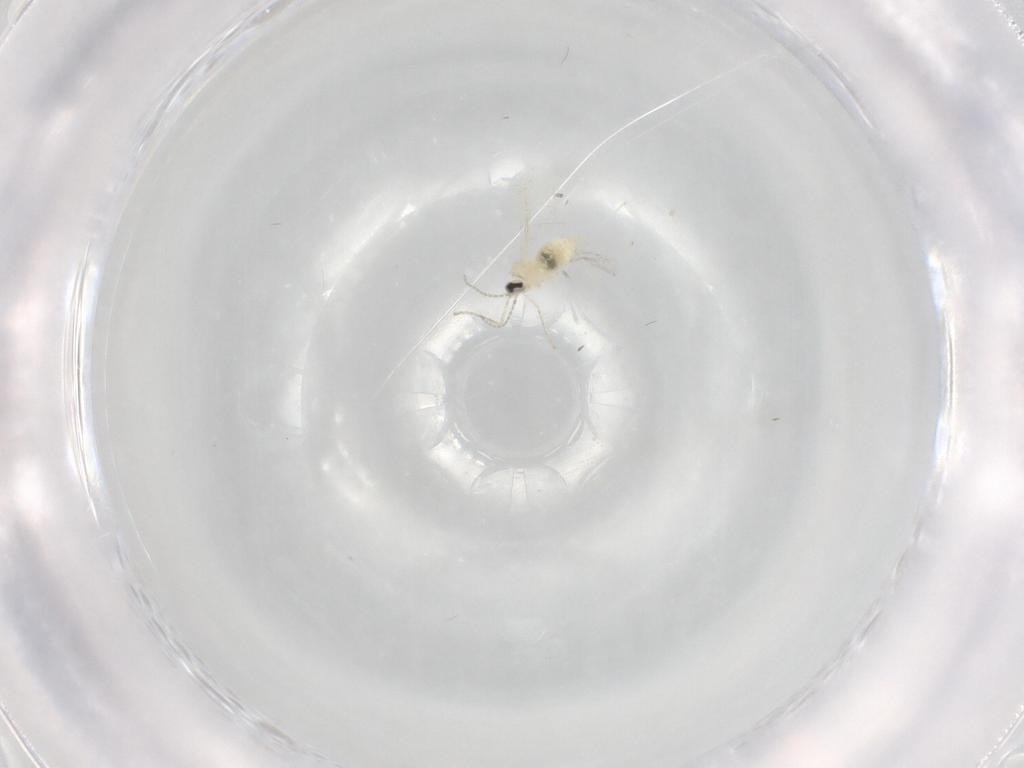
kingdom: Animalia
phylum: Arthropoda
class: Insecta
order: Diptera
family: Cecidomyiidae
